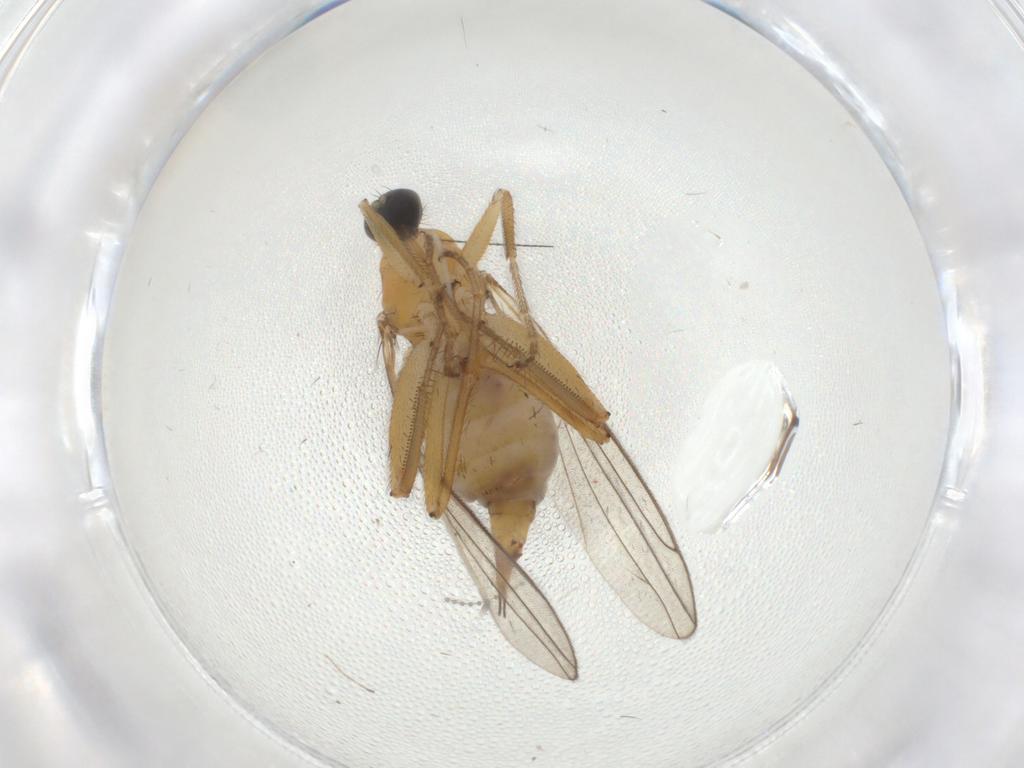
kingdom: Animalia
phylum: Arthropoda
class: Insecta
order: Diptera
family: Hybotidae
